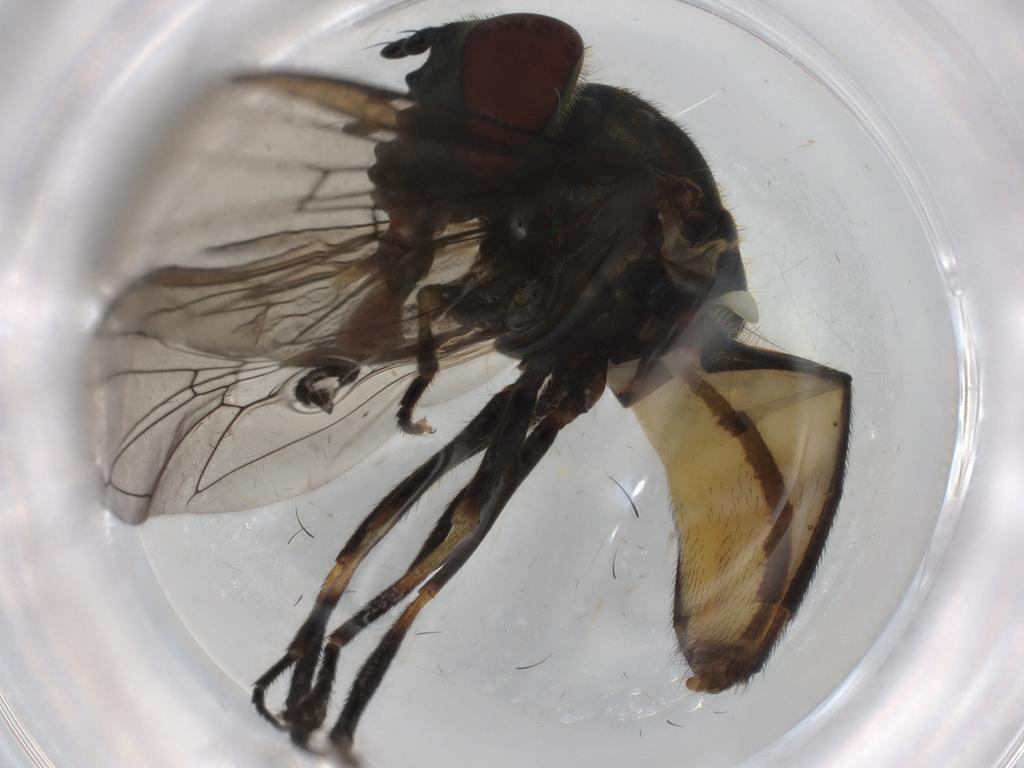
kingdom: Animalia
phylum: Arthropoda
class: Insecta
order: Diptera
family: Syrphidae
